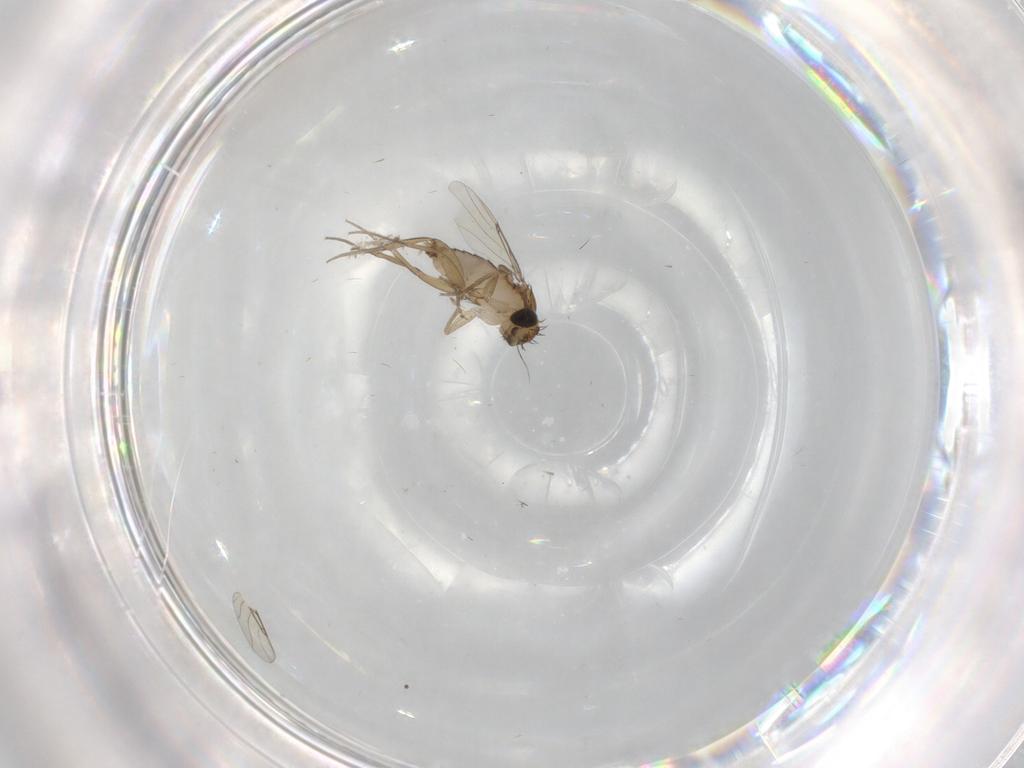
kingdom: Animalia
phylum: Arthropoda
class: Insecta
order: Diptera
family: Phoridae
